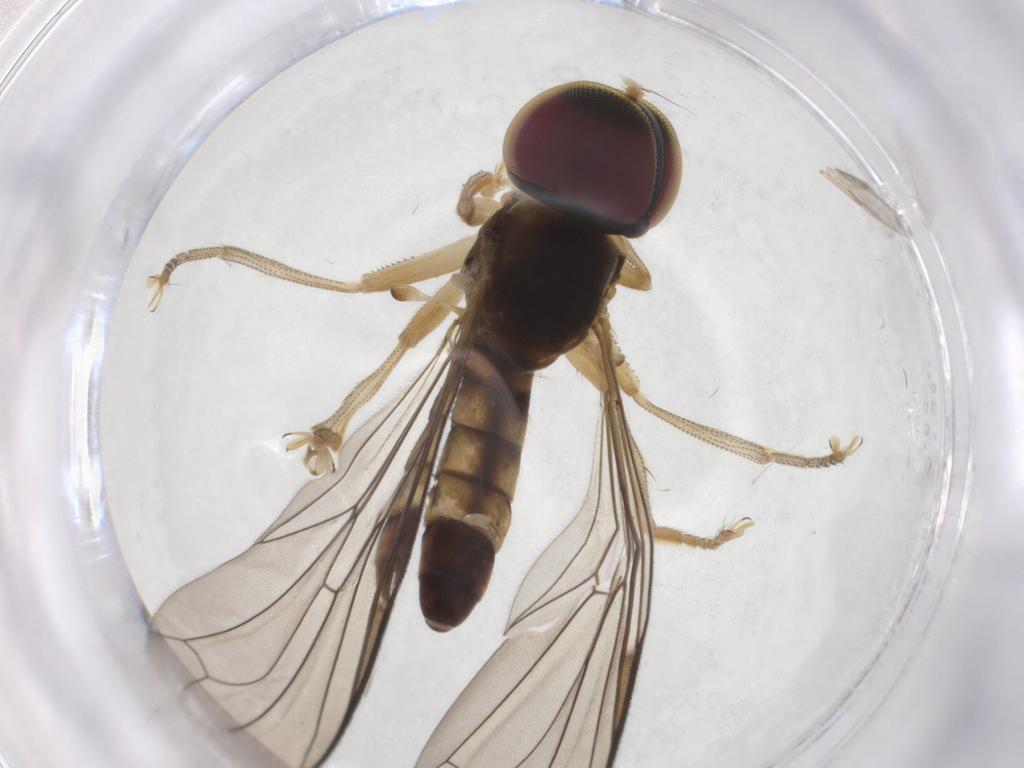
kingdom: Animalia
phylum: Arthropoda
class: Insecta
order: Diptera
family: Pipunculidae
